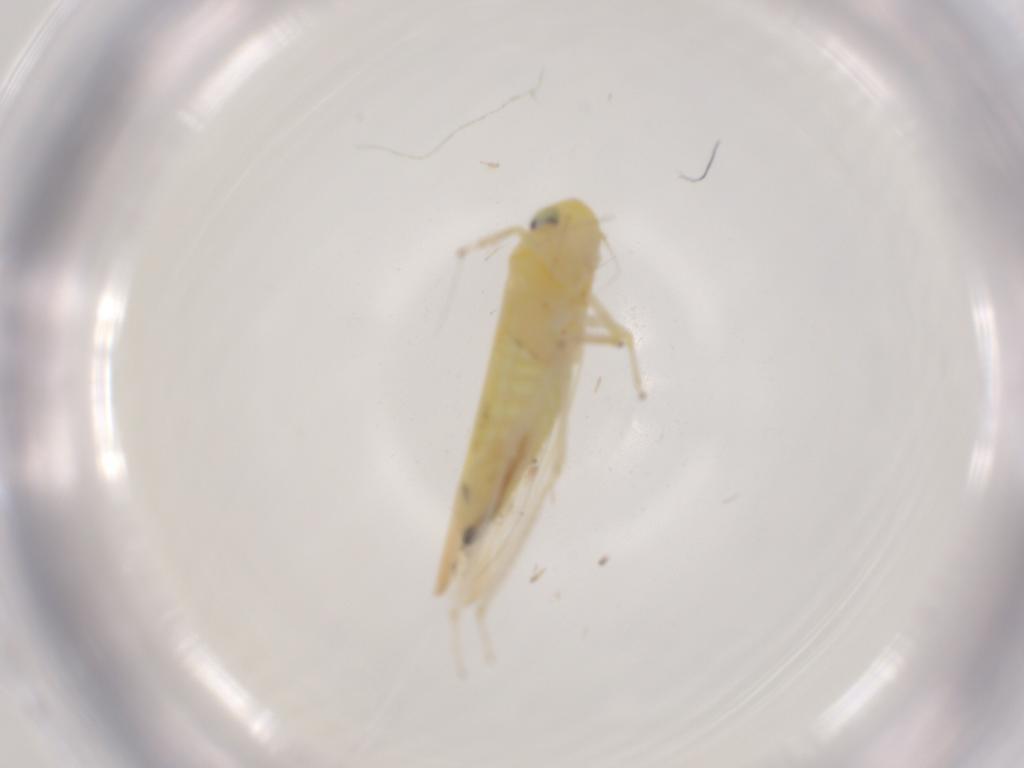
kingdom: Animalia
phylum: Arthropoda
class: Insecta
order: Hemiptera
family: Cicadellidae
